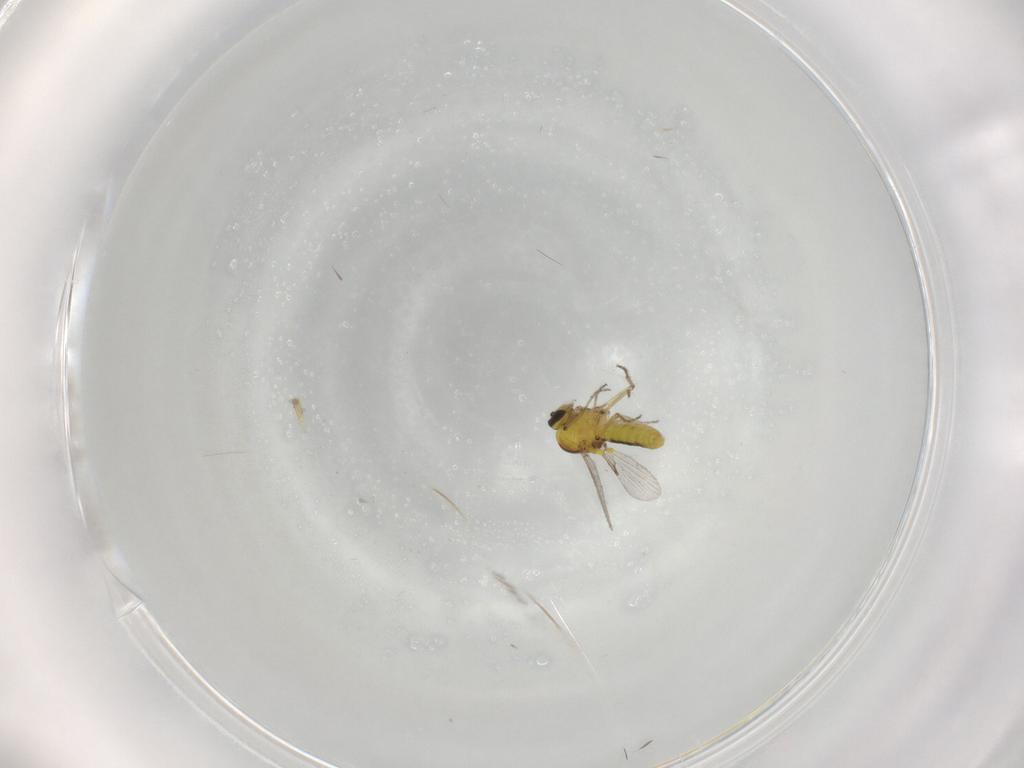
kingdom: Animalia
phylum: Arthropoda
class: Insecta
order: Diptera
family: Ceratopogonidae
